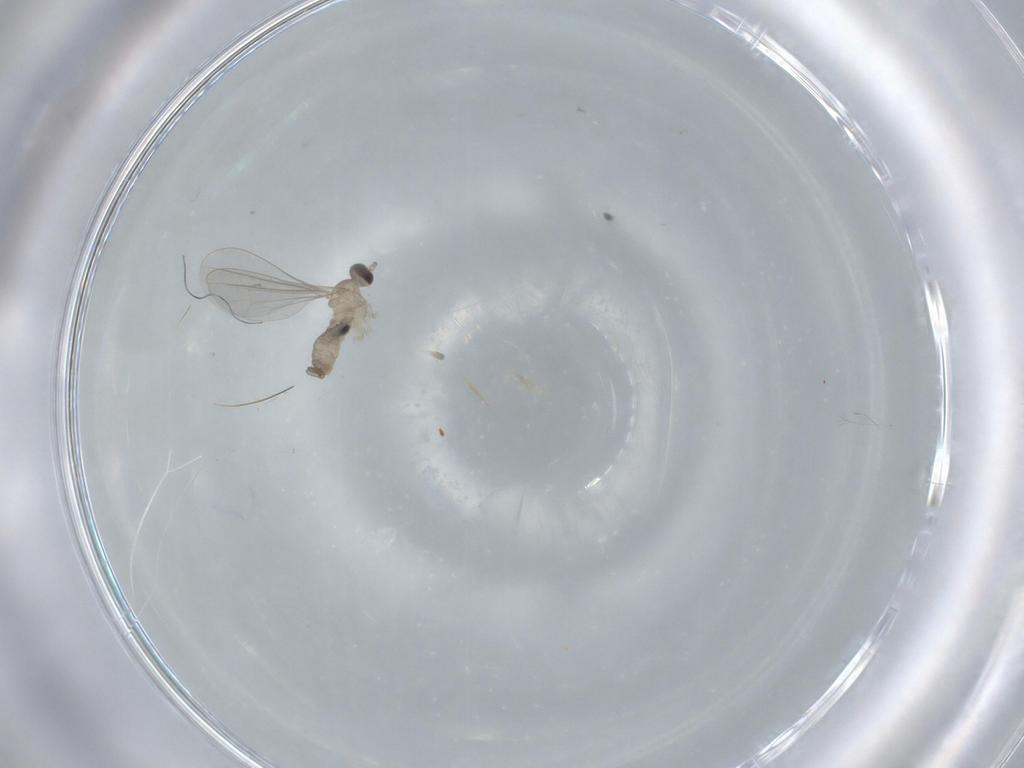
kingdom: Animalia
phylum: Arthropoda
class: Insecta
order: Diptera
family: Cecidomyiidae
